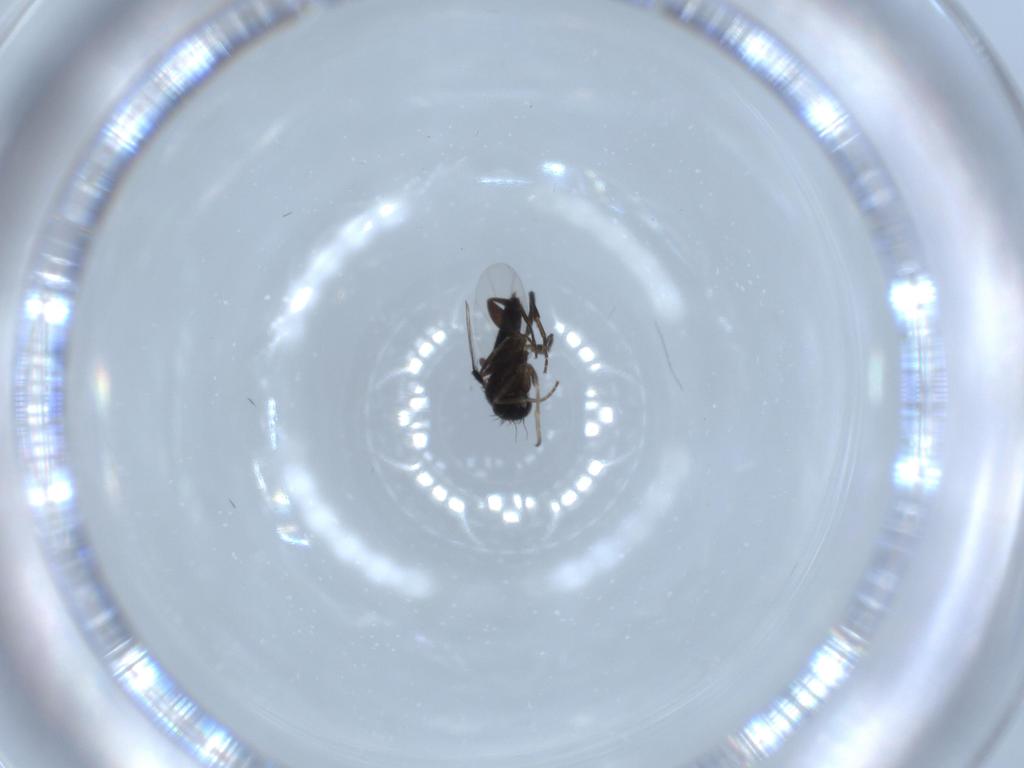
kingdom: Animalia
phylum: Arthropoda
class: Insecta
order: Diptera
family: Phoridae
